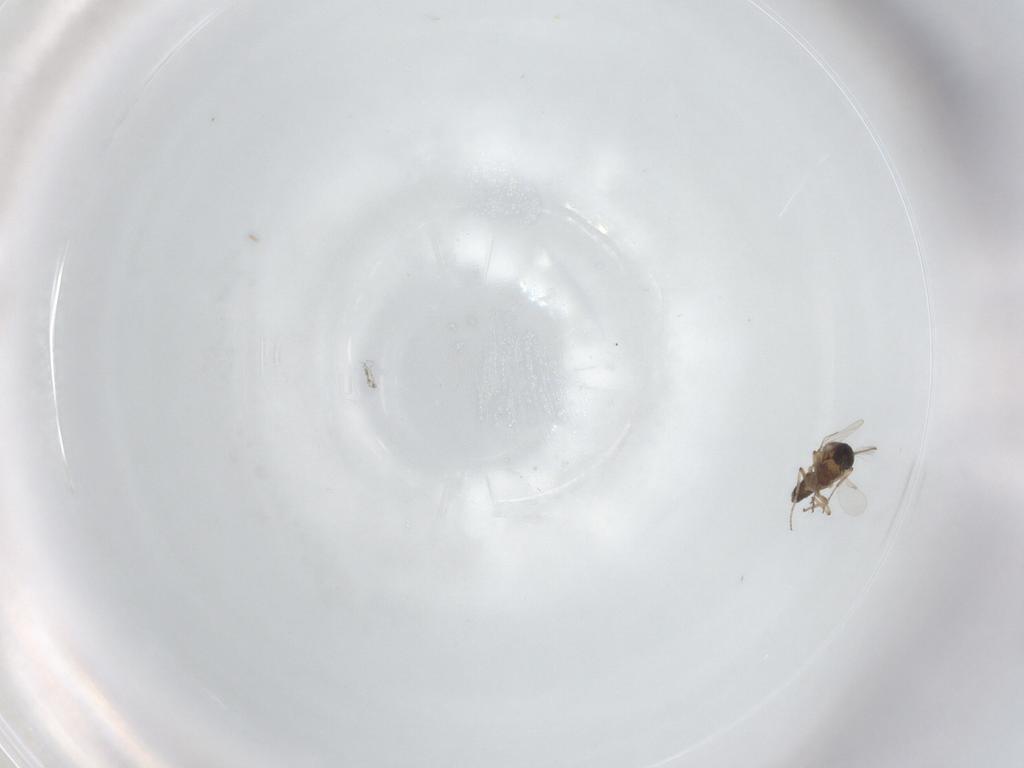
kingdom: Animalia
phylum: Arthropoda
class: Insecta
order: Diptera
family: Ceratopogonidae
